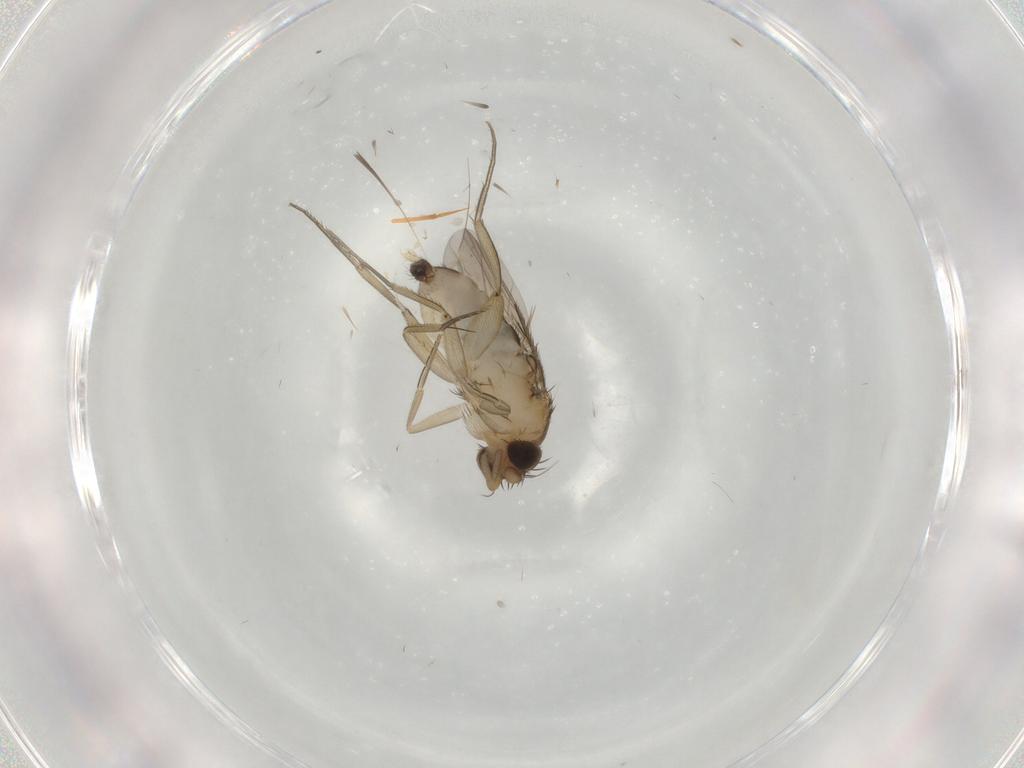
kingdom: Animalia
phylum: Arthropoda
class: Insecta
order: Diptera
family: Phoridae
